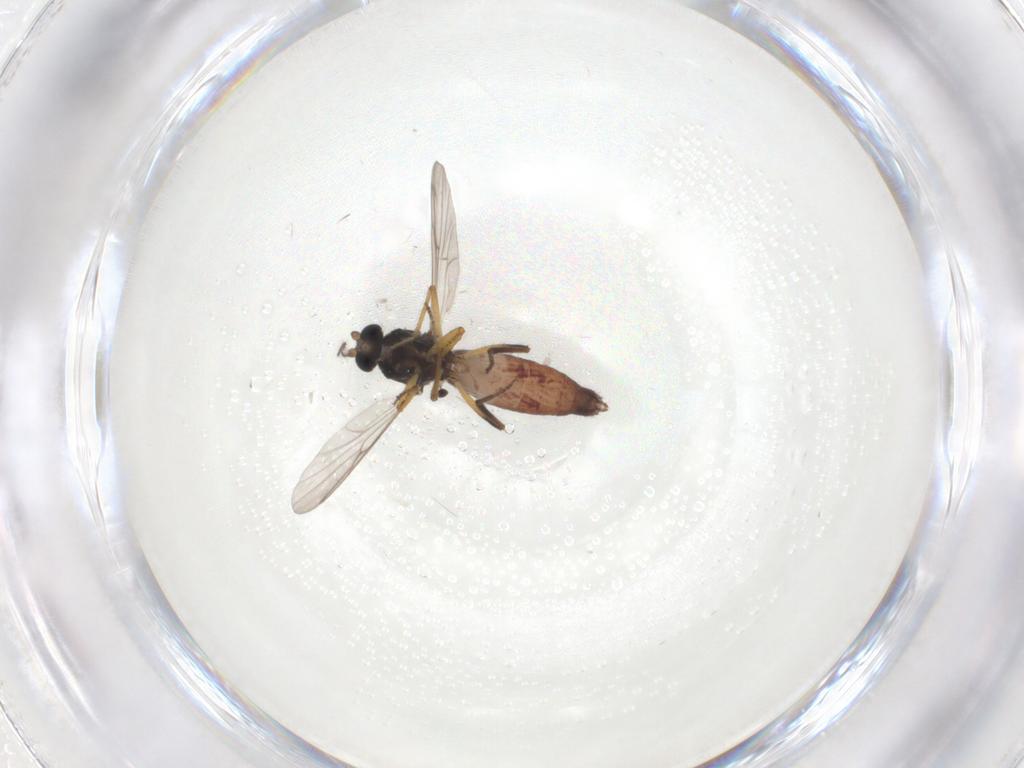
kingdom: Animalia
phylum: Arthropoda
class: Insecta
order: Diptera
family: Ceratopogonidae
